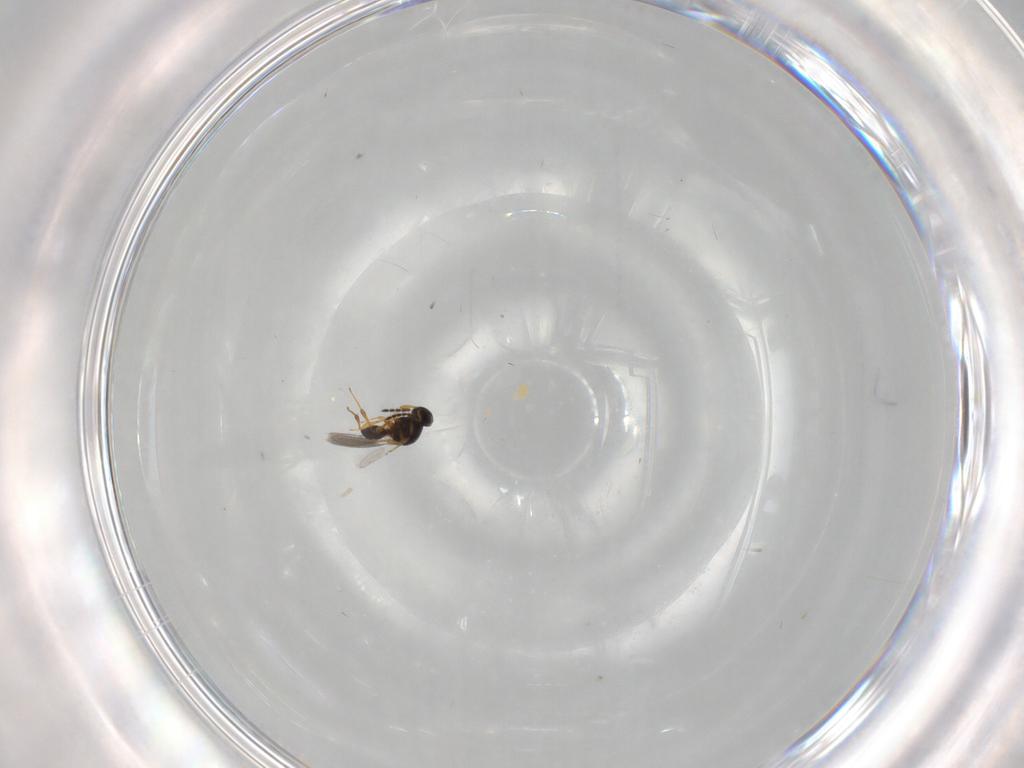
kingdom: Animalia
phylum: Arthropoda
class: Insecta
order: Hymenoptera
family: Platygastridae
